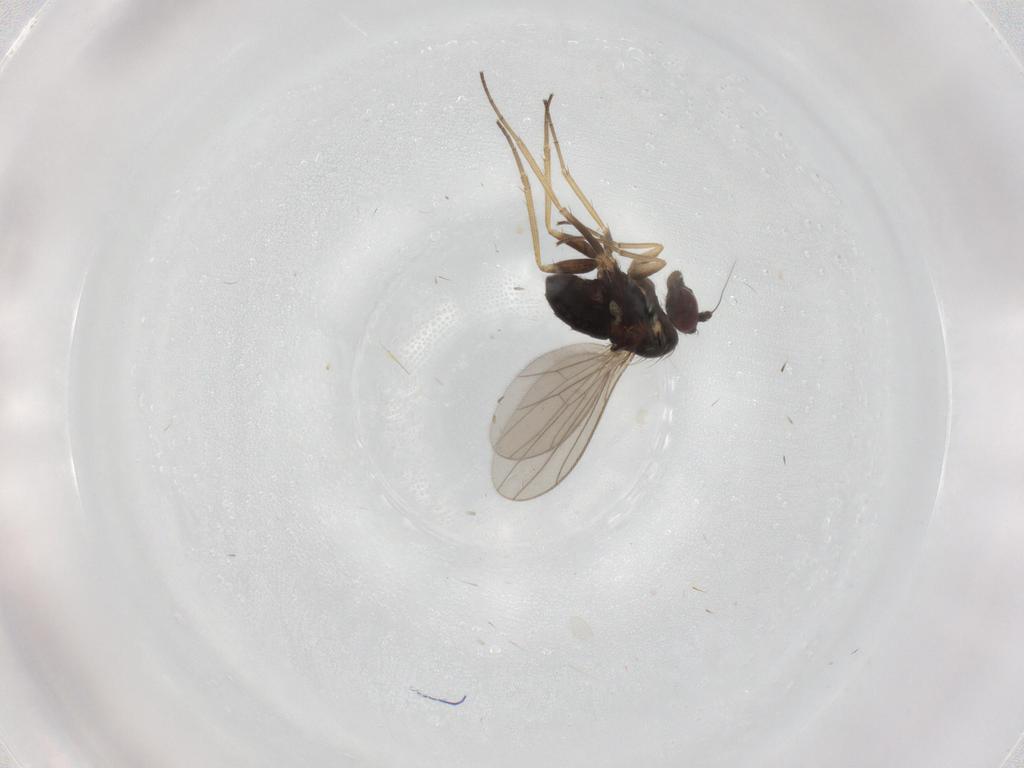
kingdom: Animalia
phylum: Arthropoda
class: Insecta
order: Diptera
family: Dolichopodidae
